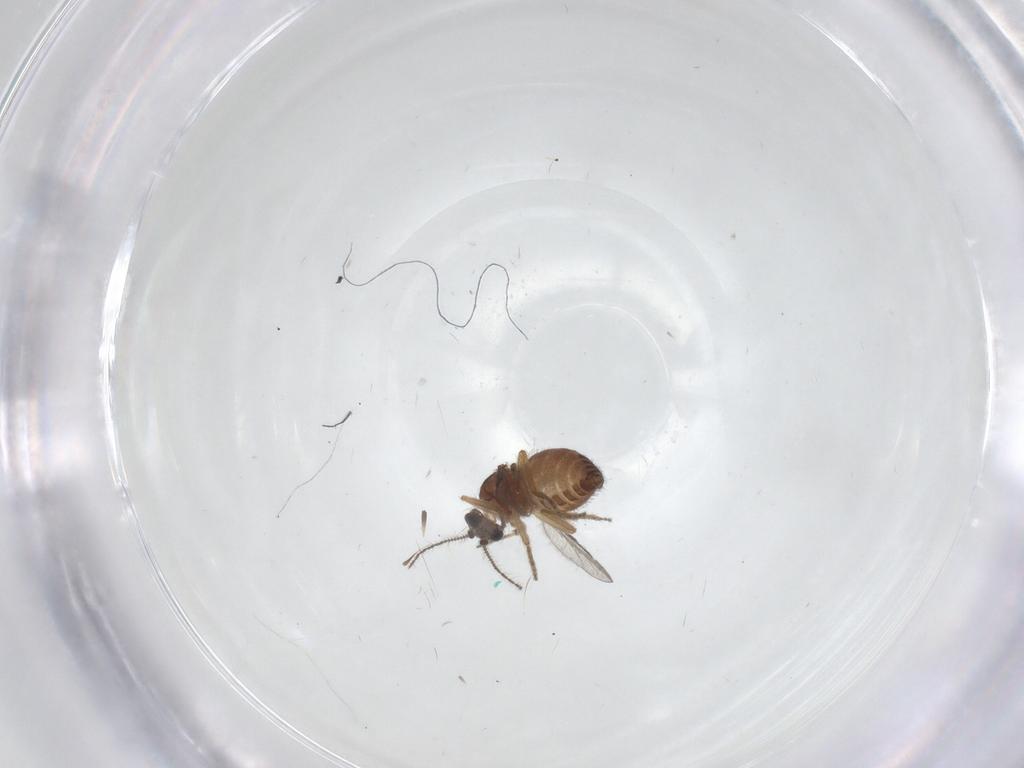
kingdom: Animalia
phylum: Arthropoda
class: Insecta
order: Diptera
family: Ceratopogonidae
